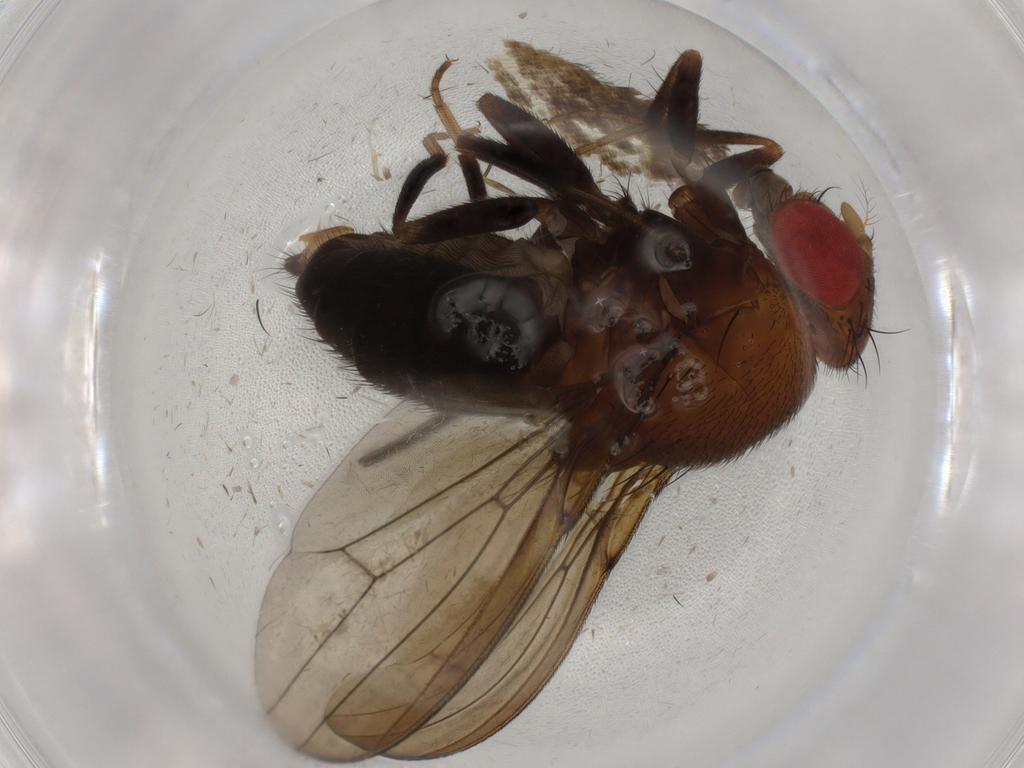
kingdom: Animalia
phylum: Arthropoda
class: Insecta
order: Diptera
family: Drosophilidae
